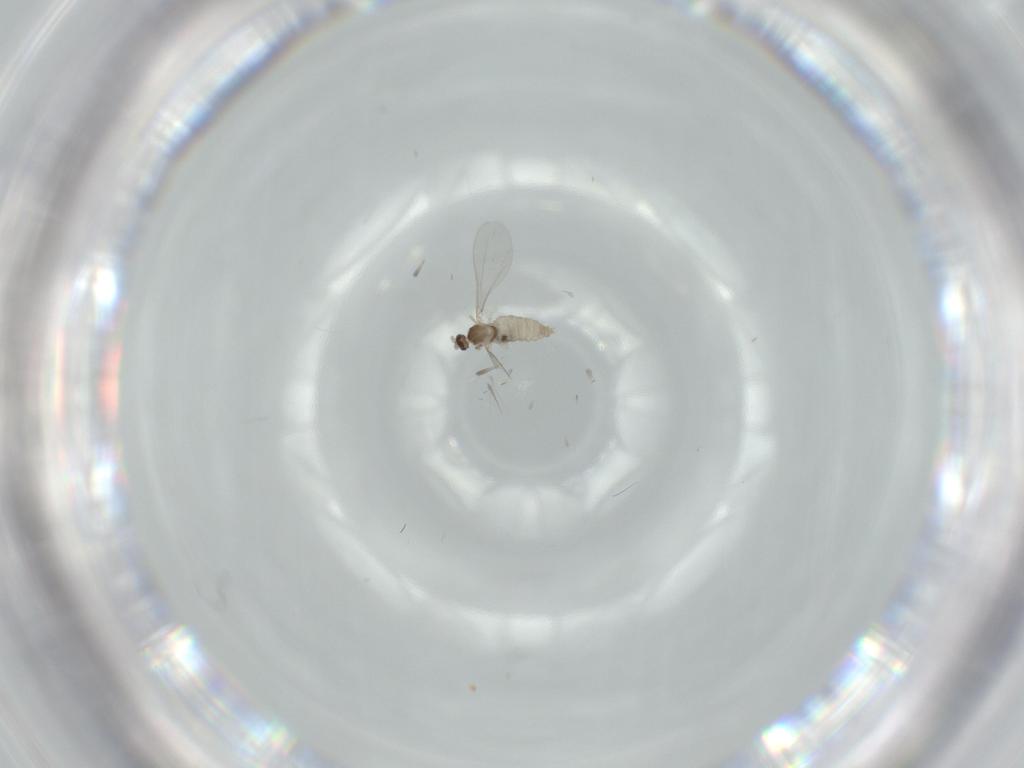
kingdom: Animalia
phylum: Arthropoda
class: Insecta
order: Diptera
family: Cecidomyiidae
